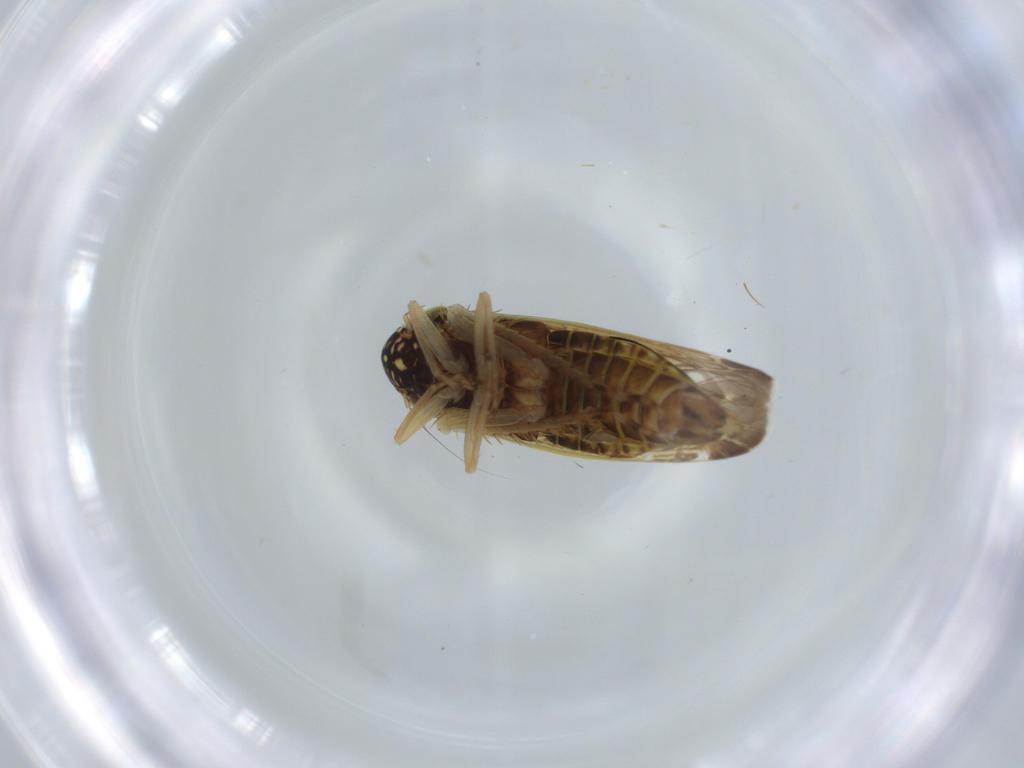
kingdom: Animalia
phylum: Arthropoda
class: Insecta
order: Hemiptera
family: Cicadellidae
